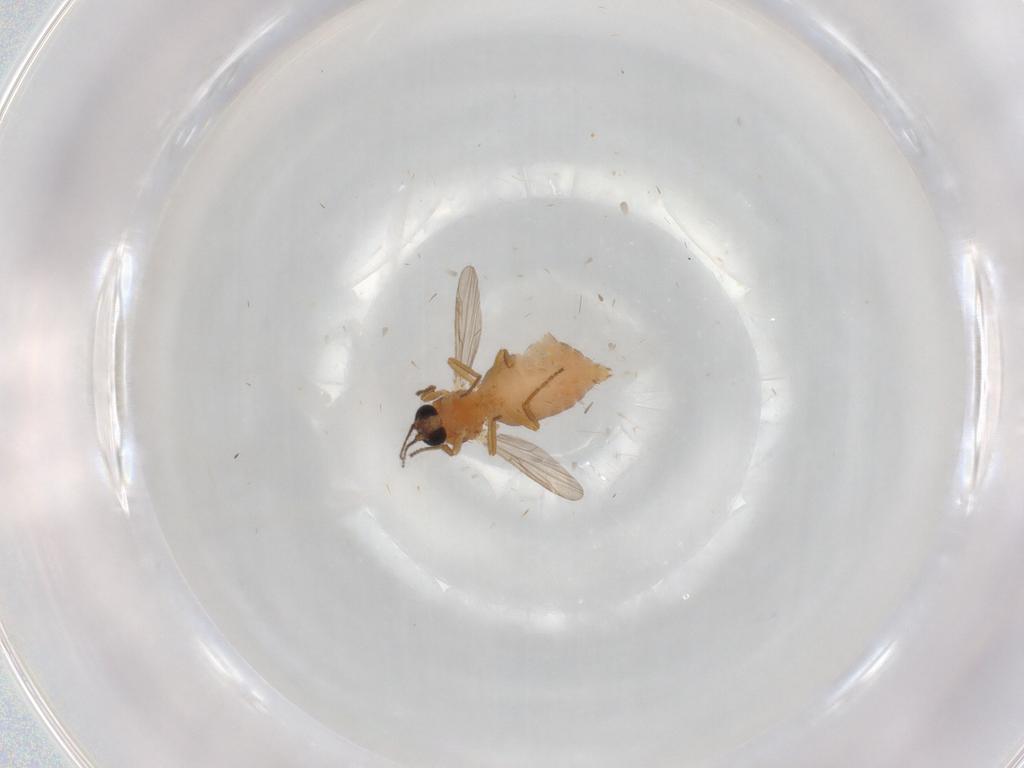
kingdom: Animalia
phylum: Arthropoda
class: Insecta
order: Diptera
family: Ceratopogonidae
